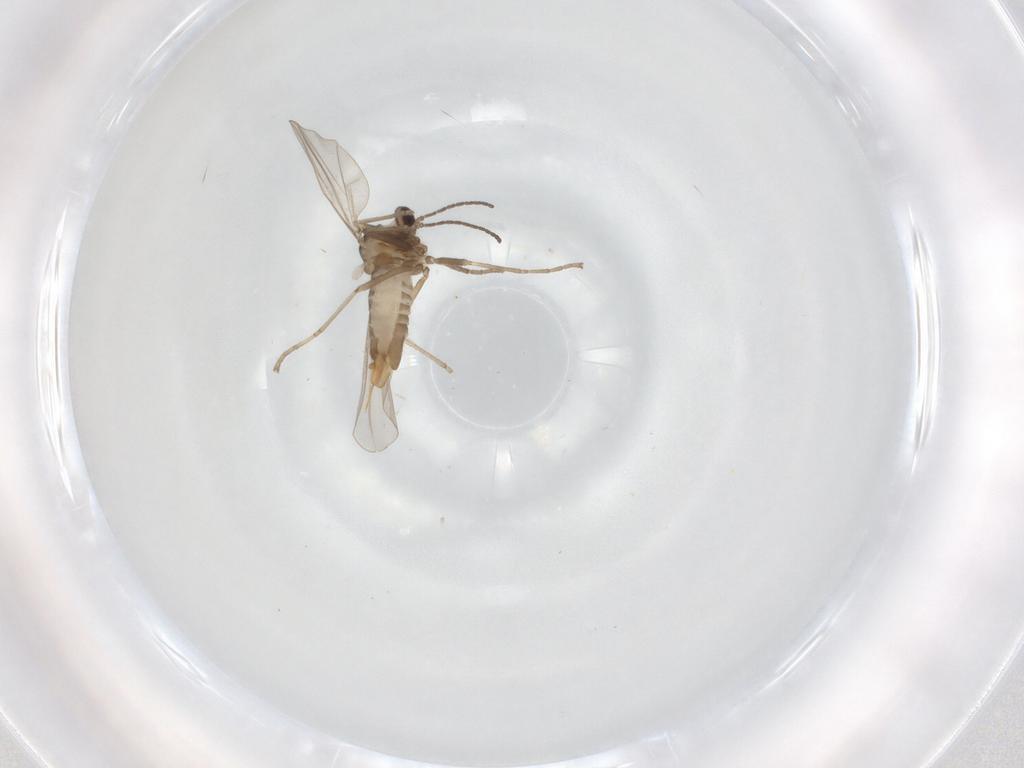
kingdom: Animalia
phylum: Arthropoda
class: Insecta
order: Diptera
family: Cecidomyiidae
